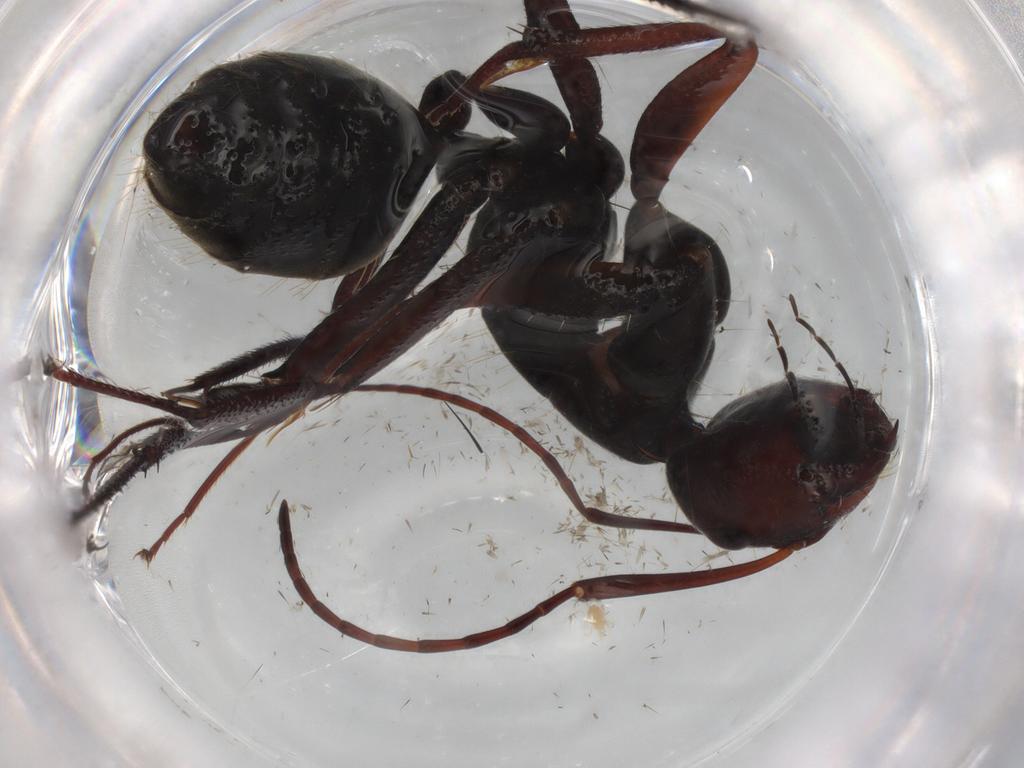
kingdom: Animalia
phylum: Arthropoda
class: Insecta
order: Hymenoptera
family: Formicidae
